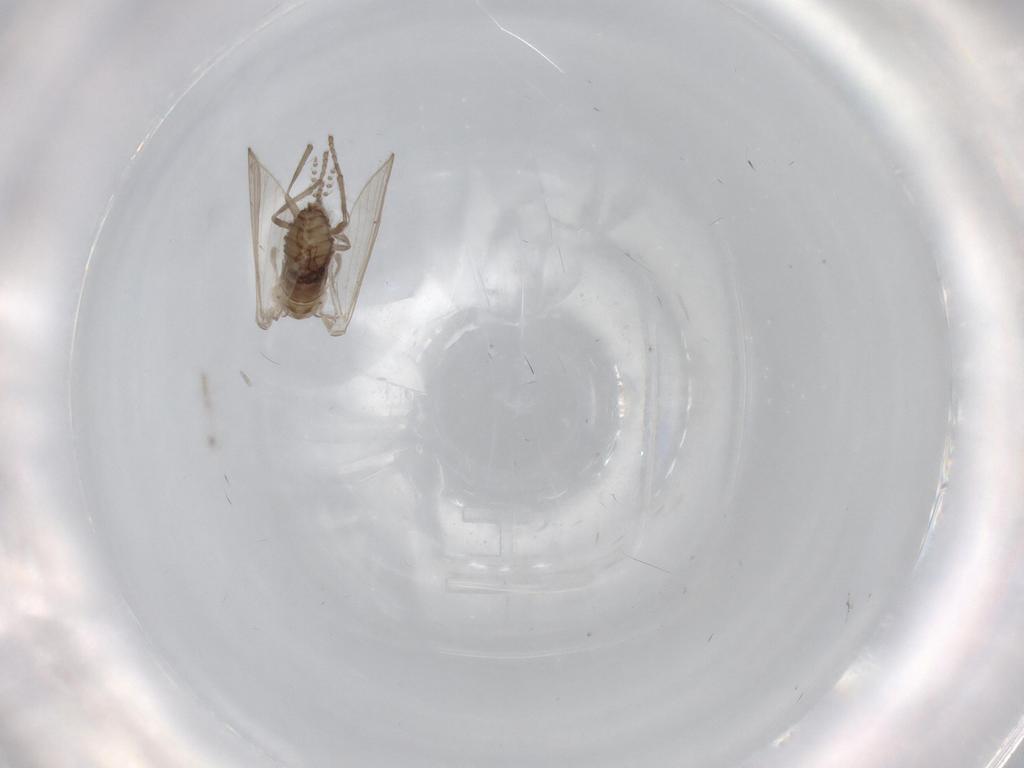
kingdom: Animalia
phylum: Arthropoda
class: Insecta
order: Diptera
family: Psychodidae
